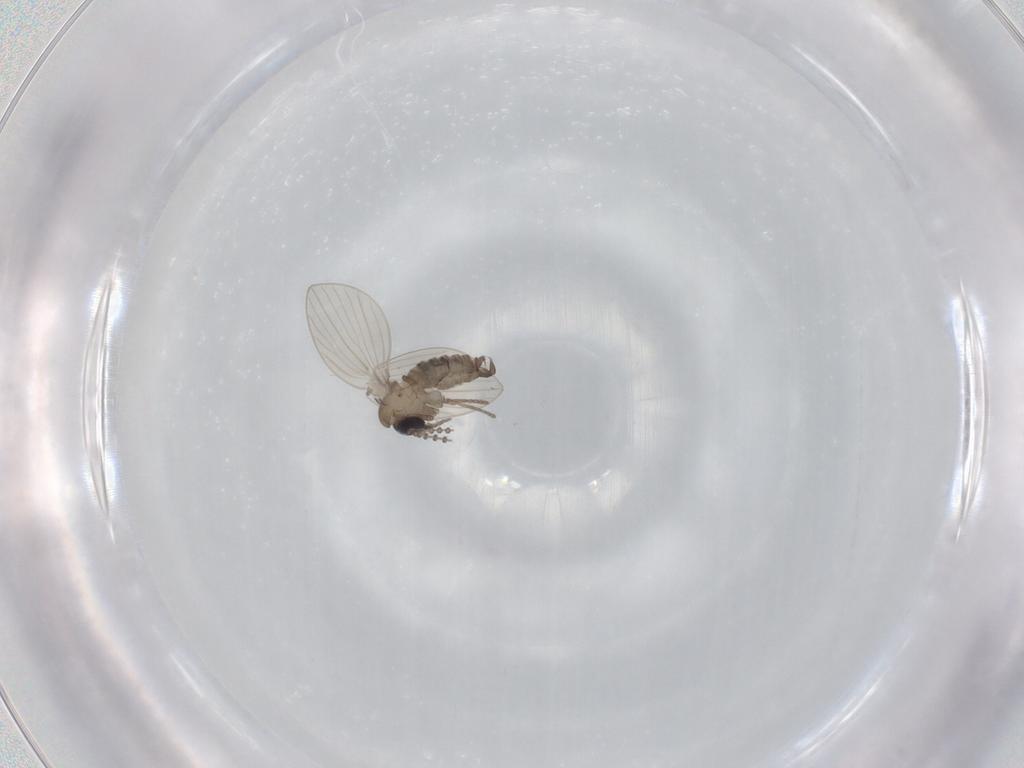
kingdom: Animalia
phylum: Arthropoda
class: Insecta
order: Diptera
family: Psychodidae
